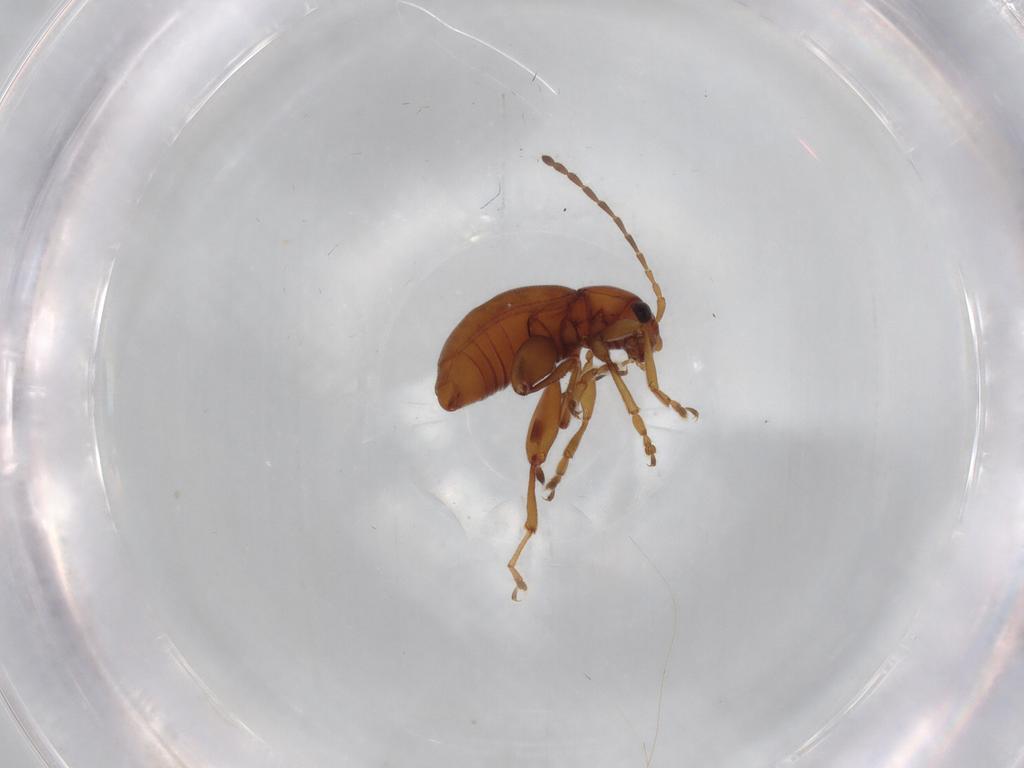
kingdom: Animalia
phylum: Arthropoda
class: Insecta
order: Coleoptera
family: Chrysomelidae
